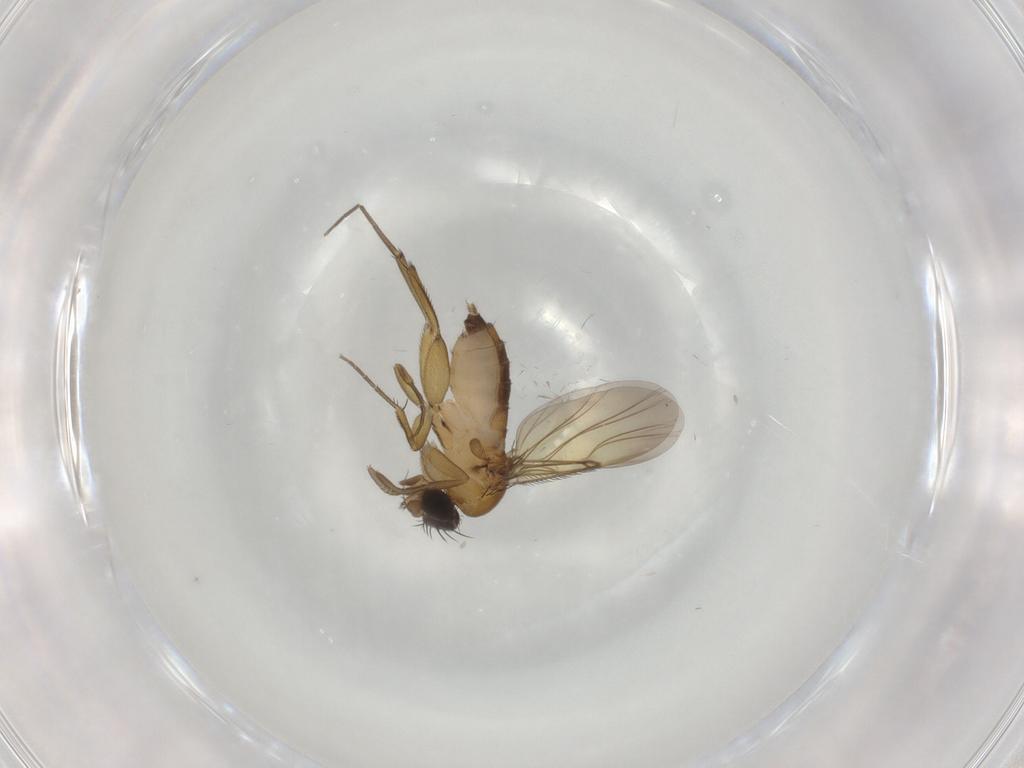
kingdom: Animalia
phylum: Arthropoda
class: Insecta
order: Diptera
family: Phoridae
